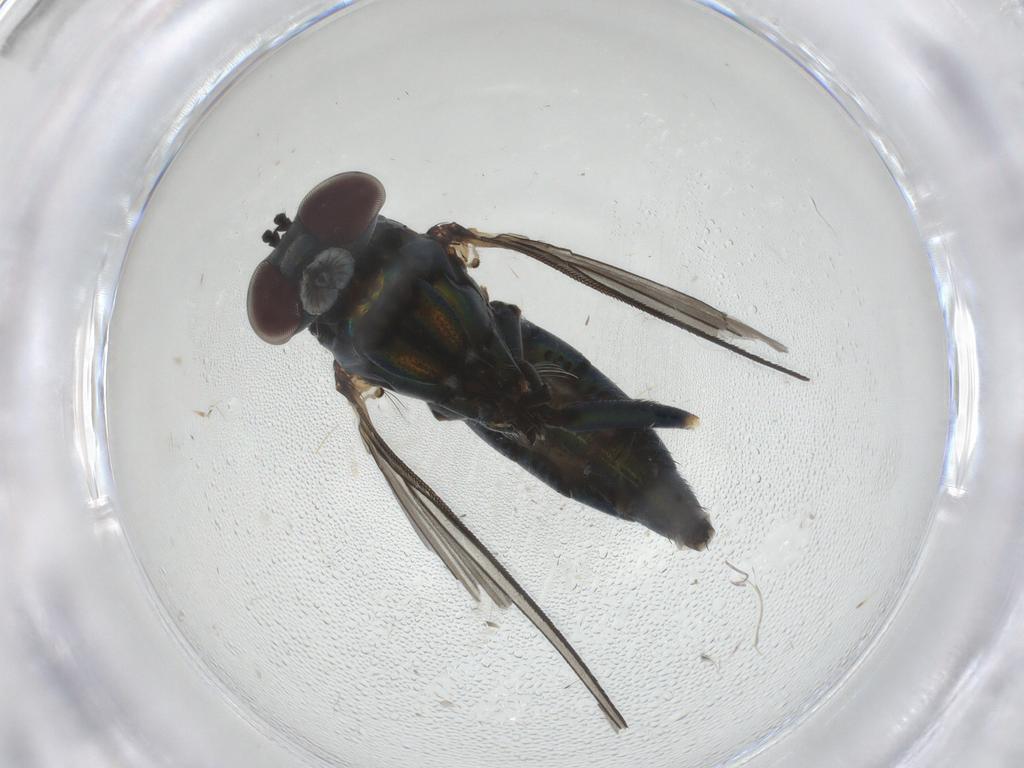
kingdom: Animalia
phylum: Arthropoda
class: Insecta
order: Diptera
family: Dolichopodidae
